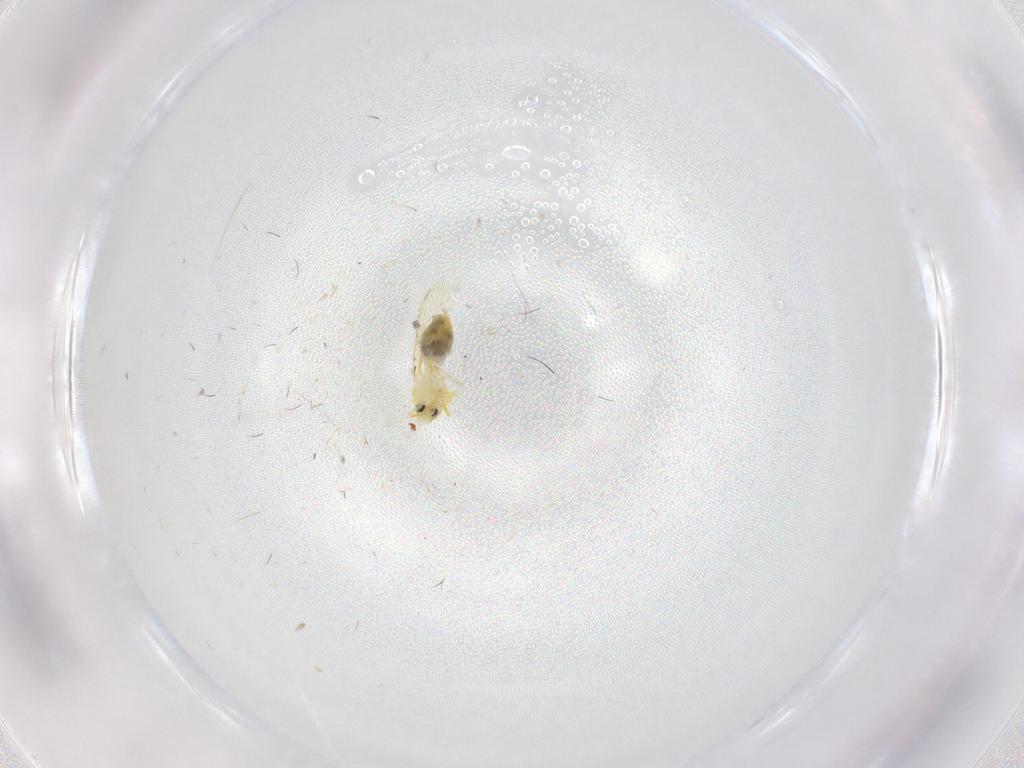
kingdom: Animalia
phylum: Arthropoda
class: Insecta
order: Hemiptera
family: Aleyrodidae
